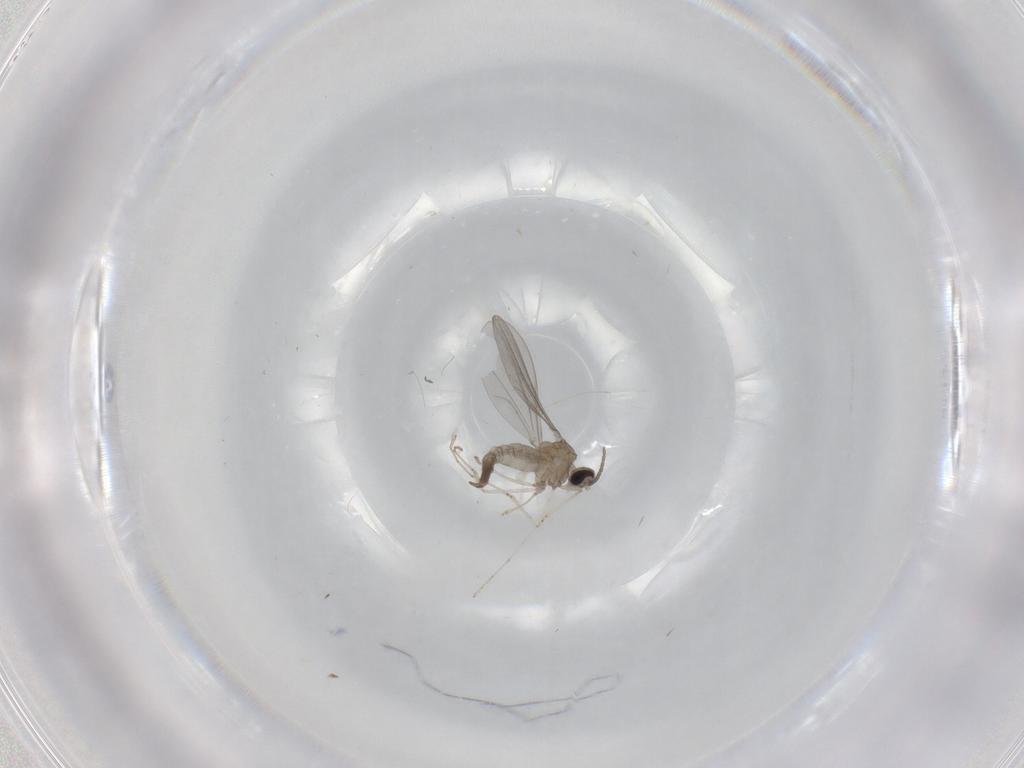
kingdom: Animalia
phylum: Arthropoda
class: Insecta
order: Diptera
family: Cecidomyiidae
